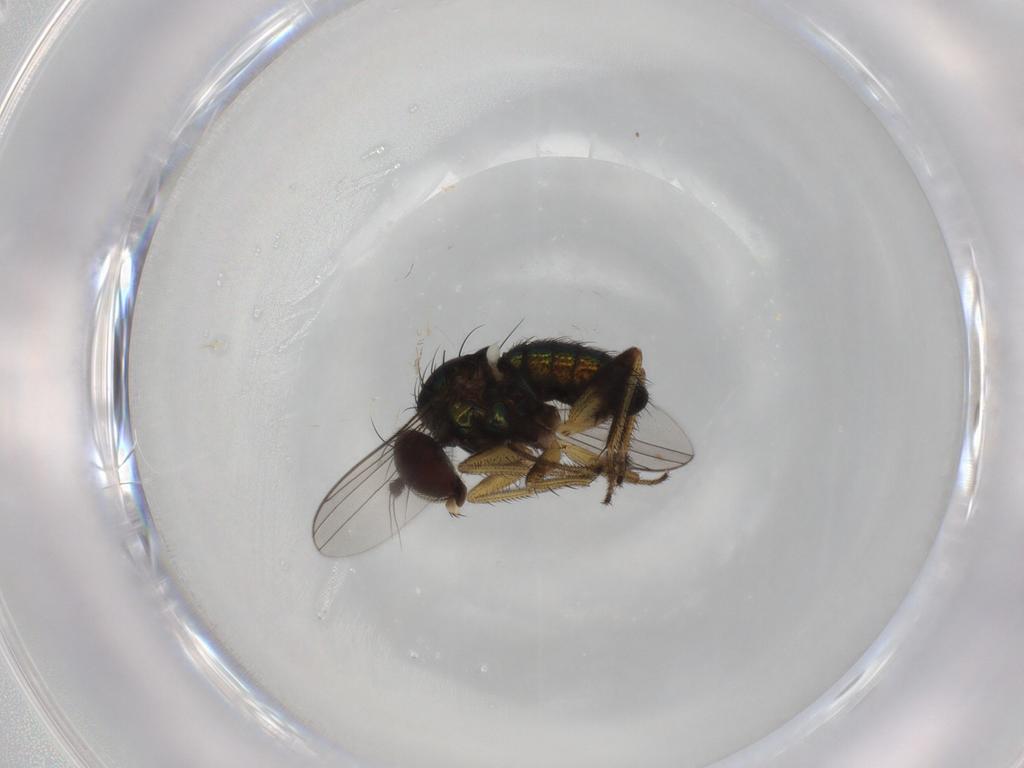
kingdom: Animalia
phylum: Arthropoda
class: Insecta
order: Diptera
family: Dolichopodidae
